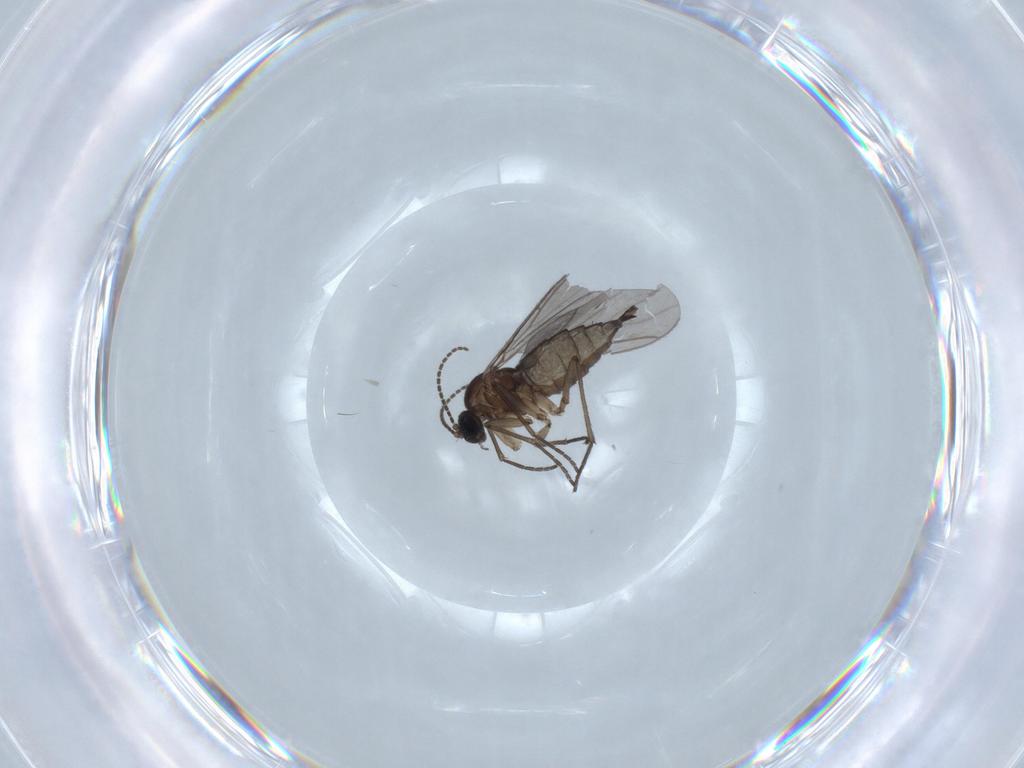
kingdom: Animalia
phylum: Arthropoda
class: Insecta
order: Diptera
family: Sciaridae
